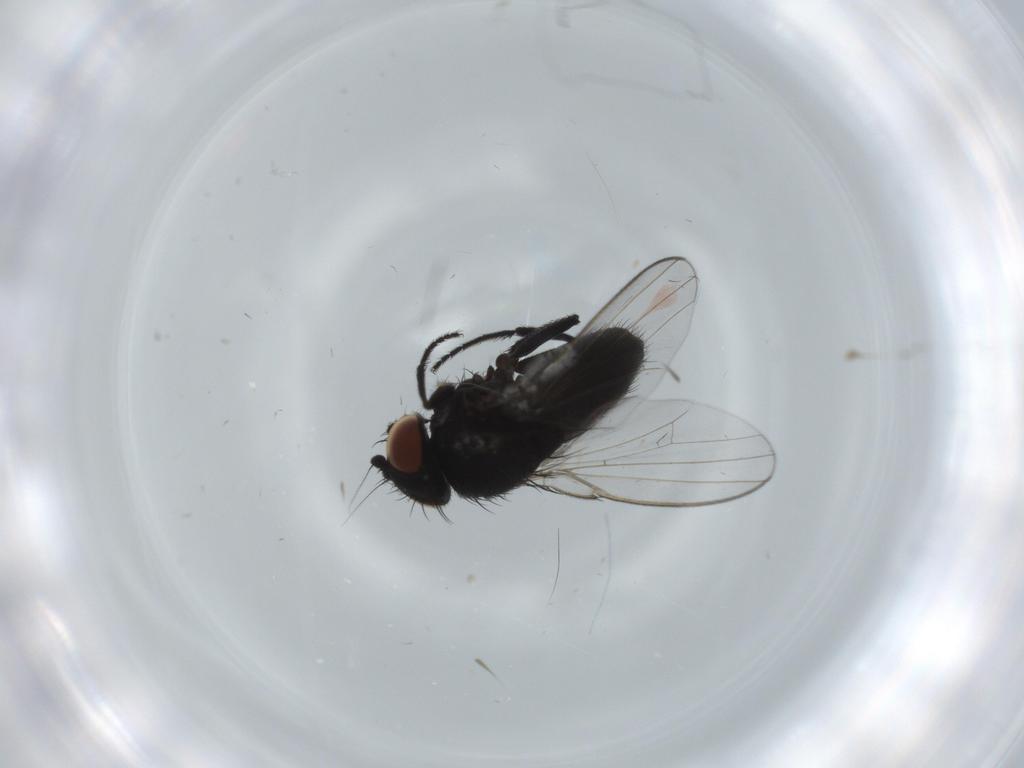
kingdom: Animalia
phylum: Arthropoda
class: Insecta
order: Diptera
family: Milichiidae
